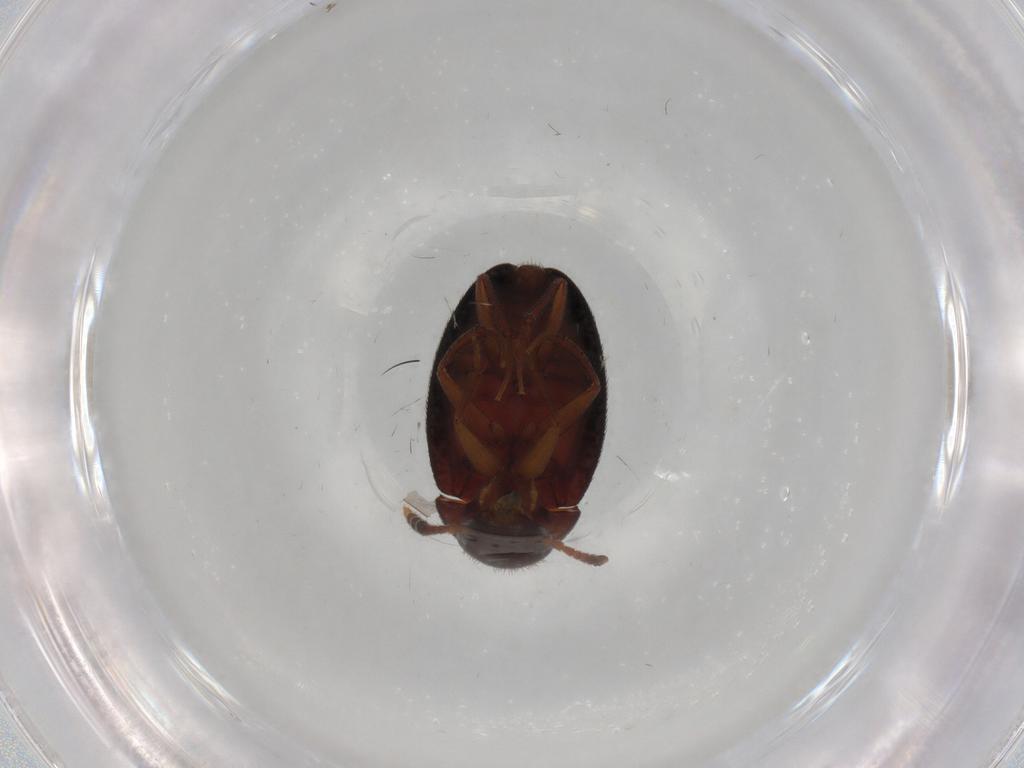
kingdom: Animalia
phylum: Arthropoda
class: Insecta
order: Coleoptera
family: Leiodidae
